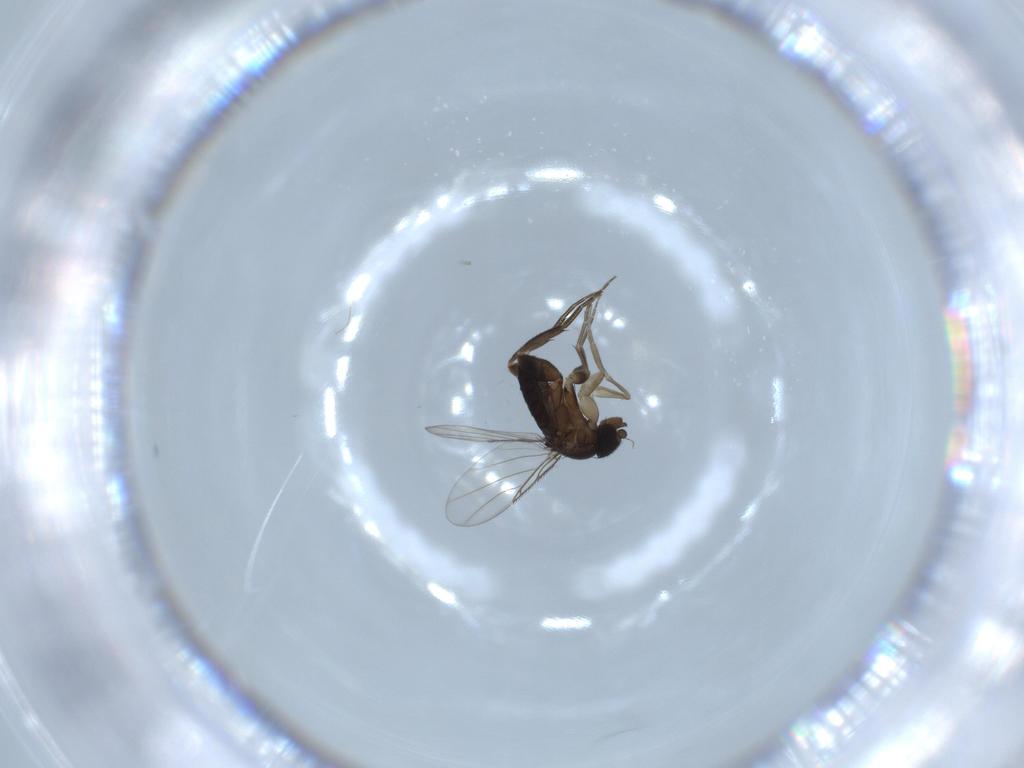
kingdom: Animalia
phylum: Arthropoda
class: Insecta
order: Diptera
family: Phoridae
